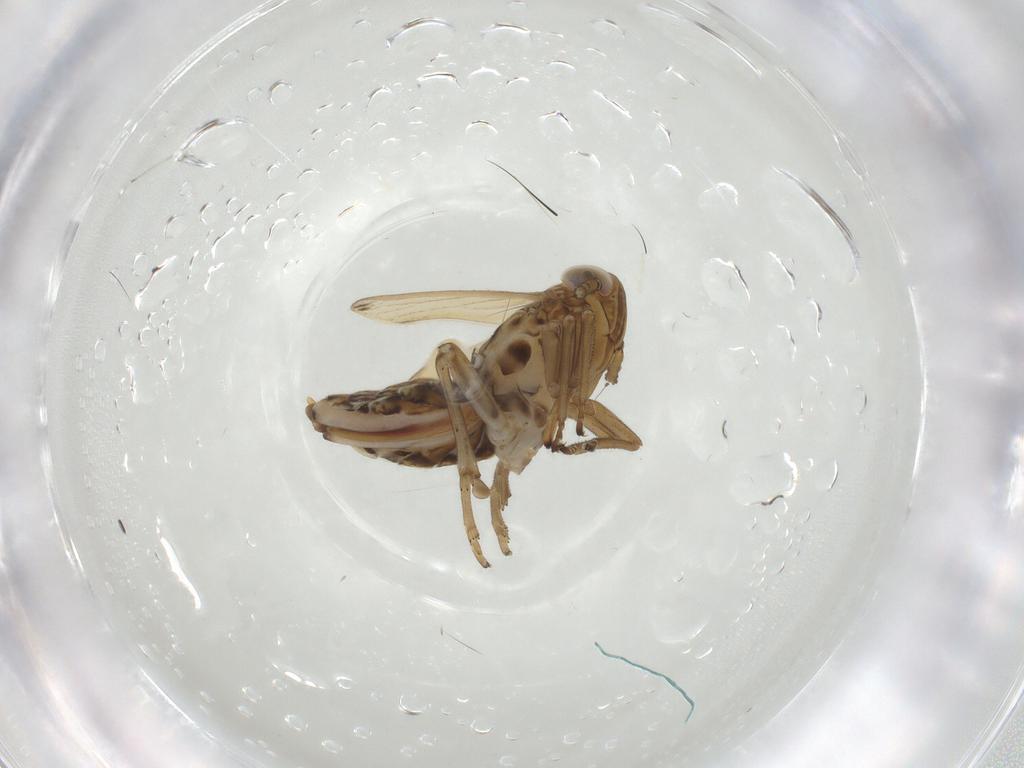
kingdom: Animalia
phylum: Arthropoda
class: Insecta
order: Hemiptera
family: Delphacidae
